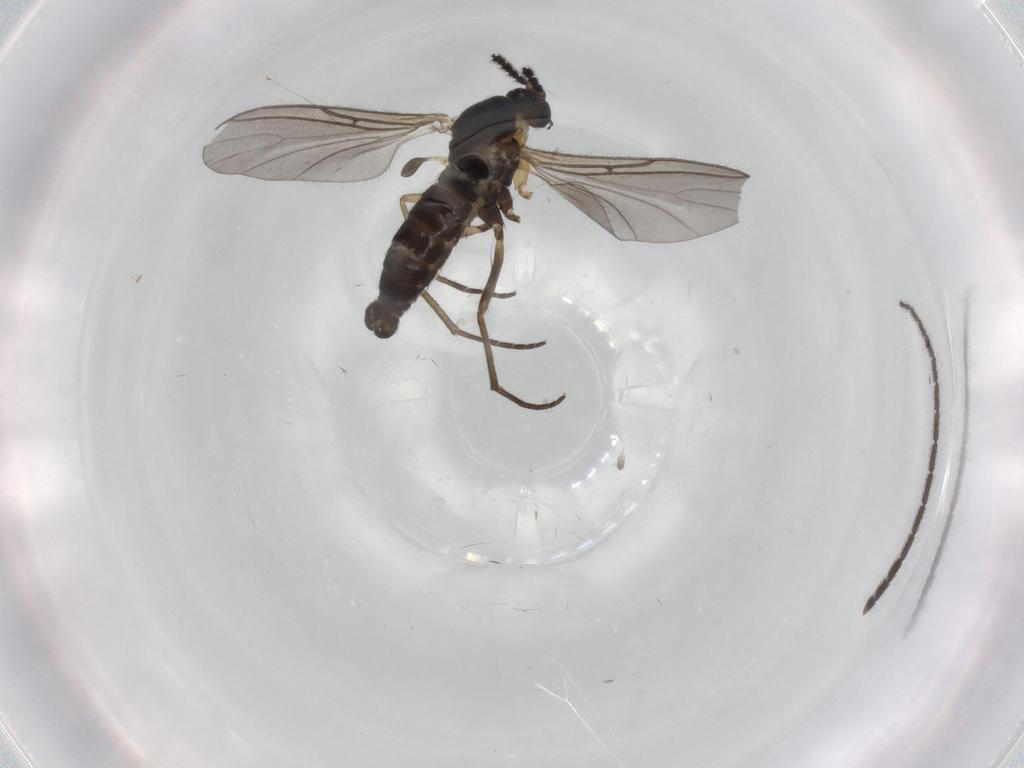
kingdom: Animalia
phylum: Arthropoda
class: Insecta
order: Diptera
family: Sciaridae
